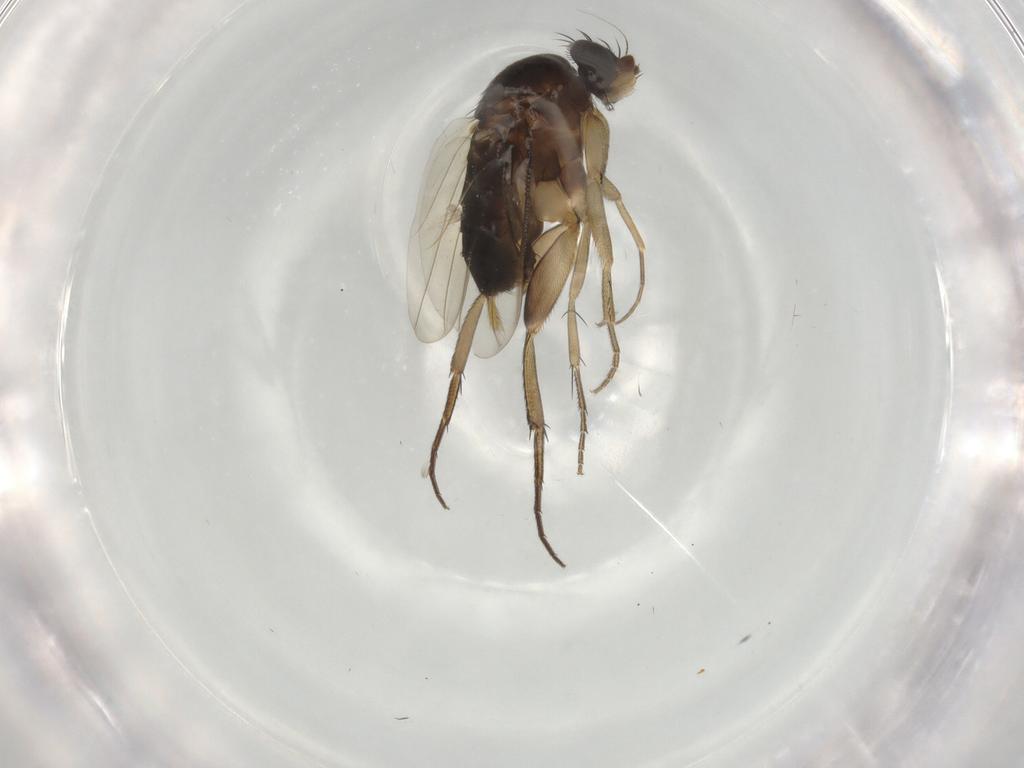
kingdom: Animalia
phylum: Arthropoda
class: Insecta
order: Diptera
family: Phoridae
